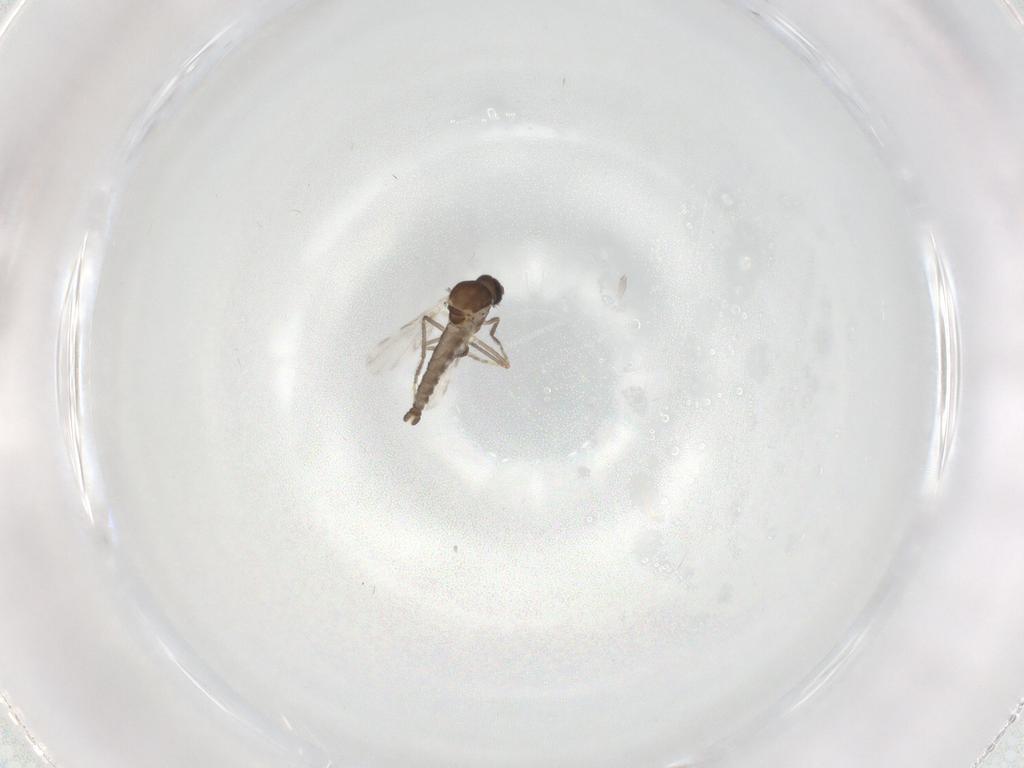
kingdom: Animalia
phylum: Arthropoda
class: Insecta
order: Diptera
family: Ceratopogonidae
